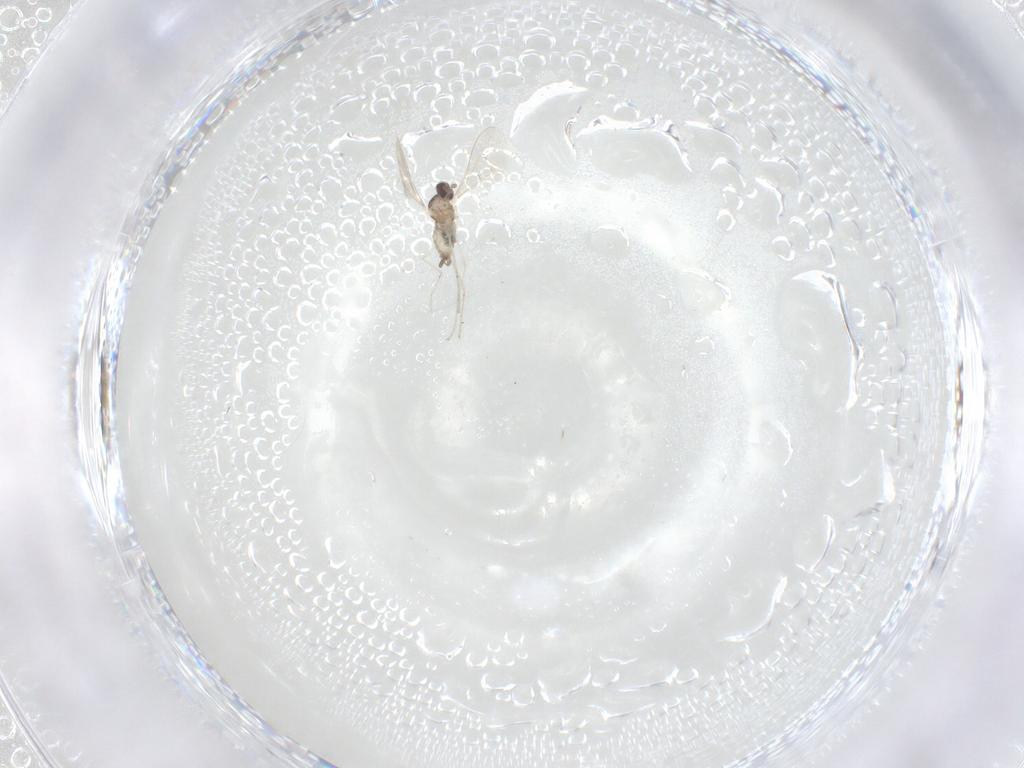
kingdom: Animalia
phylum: Arthropoda
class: Insecta
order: Diptera
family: Cecidomyiidae
